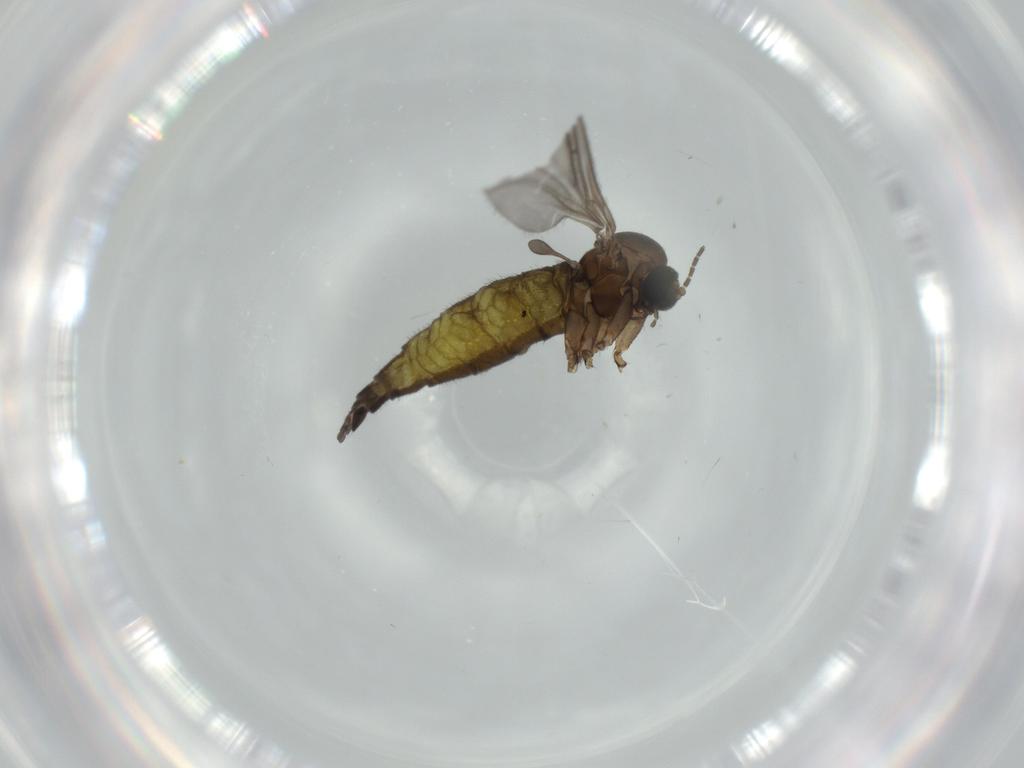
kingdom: Animalia
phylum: Arthropoda
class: Insecta
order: Diptera
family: Sciaridae
